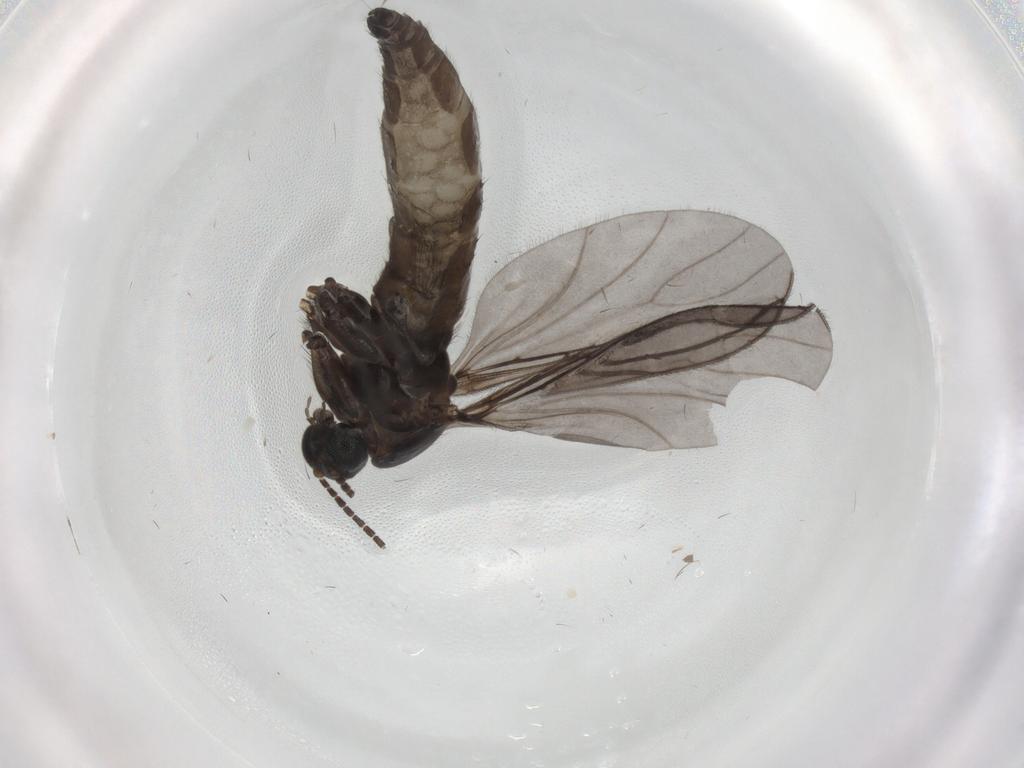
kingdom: Animalia
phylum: Arthropoda
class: Insecta
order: Diptera
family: Sciaridae
